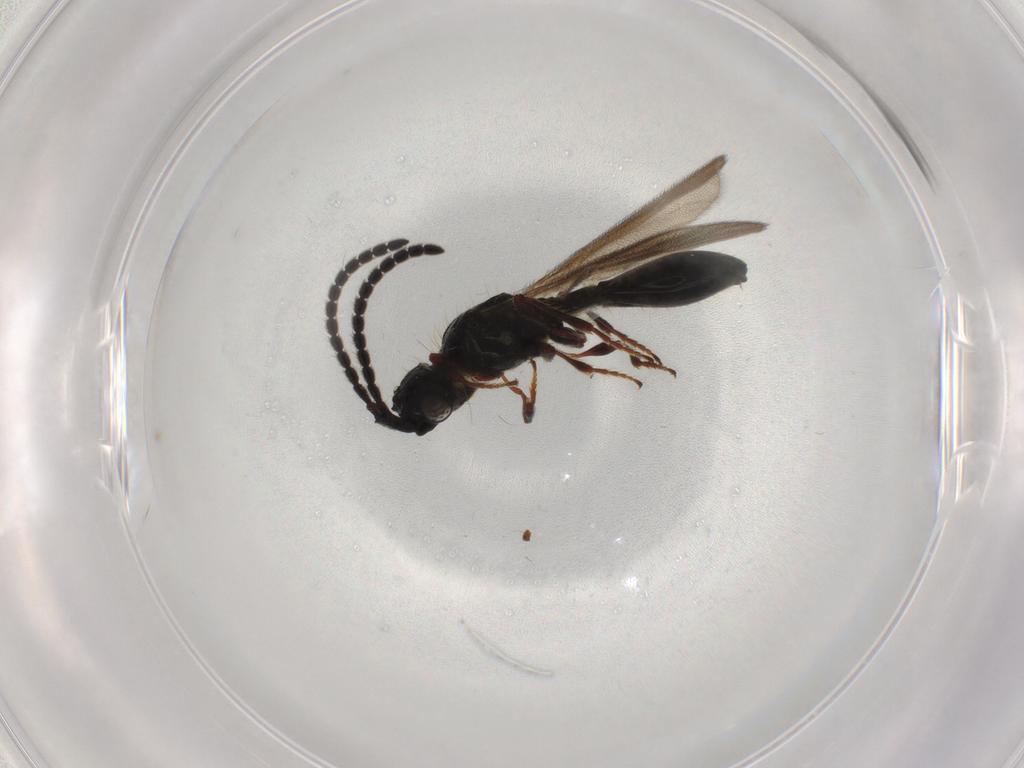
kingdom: Animalia
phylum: Arthropoda
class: Insecta
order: Hymenoptera
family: Diapriidae
